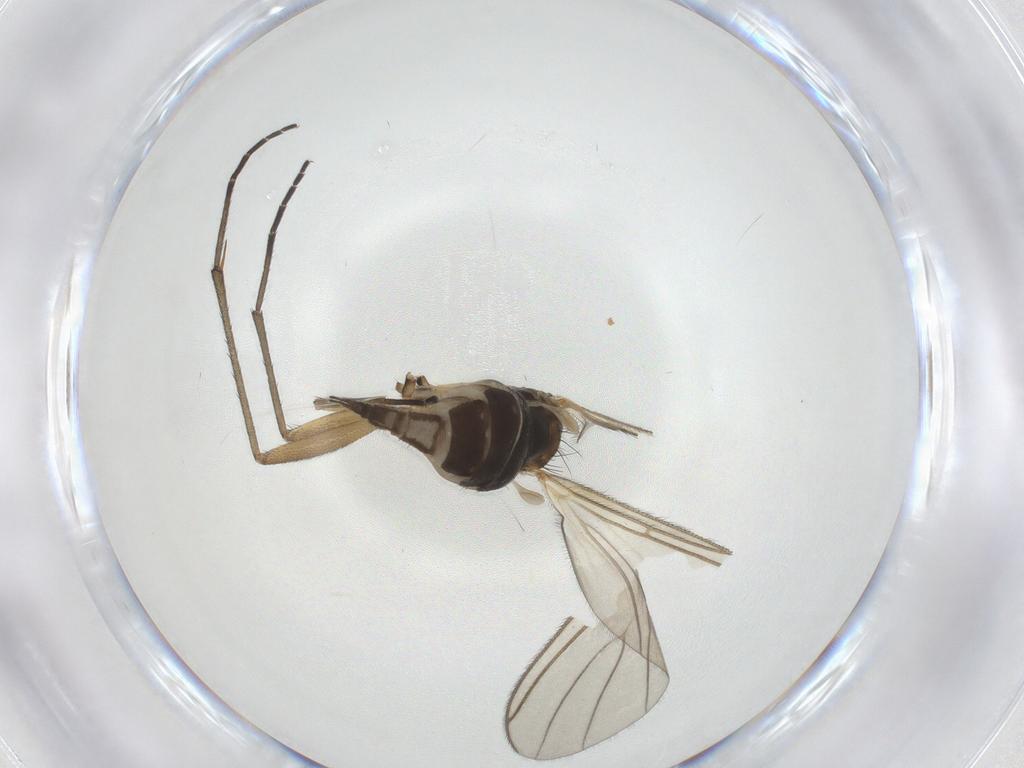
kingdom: Animalia
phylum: Arthropoda
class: Insecta
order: Diptera
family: Sciaridae
